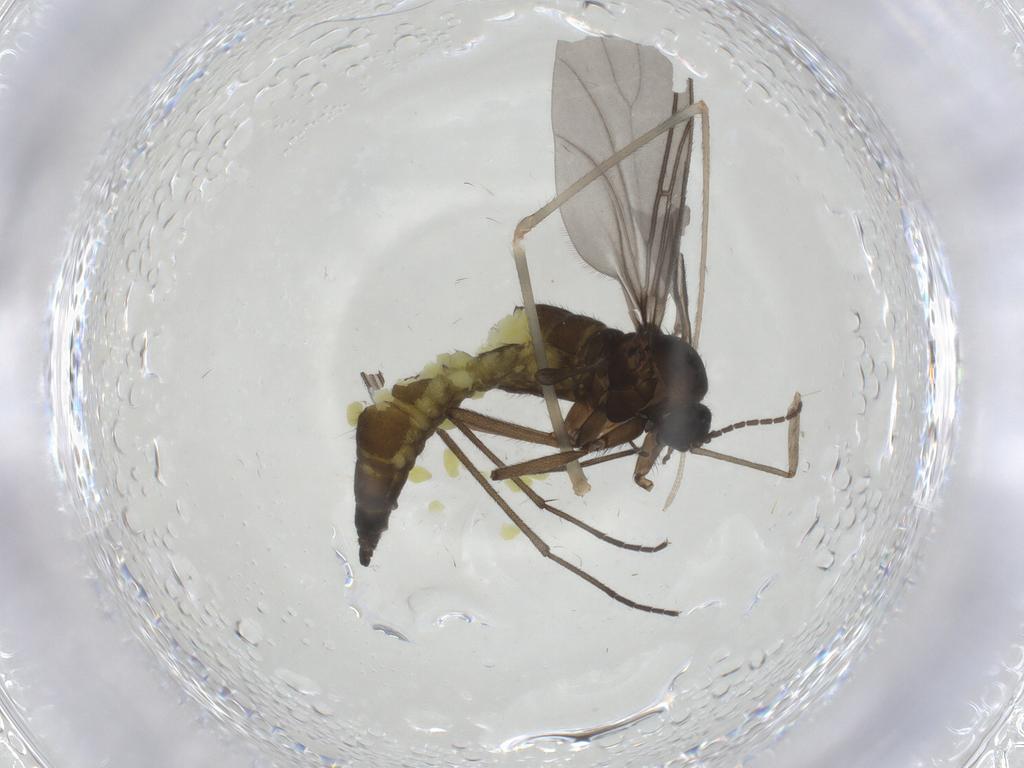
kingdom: Animalia
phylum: Arthropoda
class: Insecta
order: Diptera
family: Sciaridae
